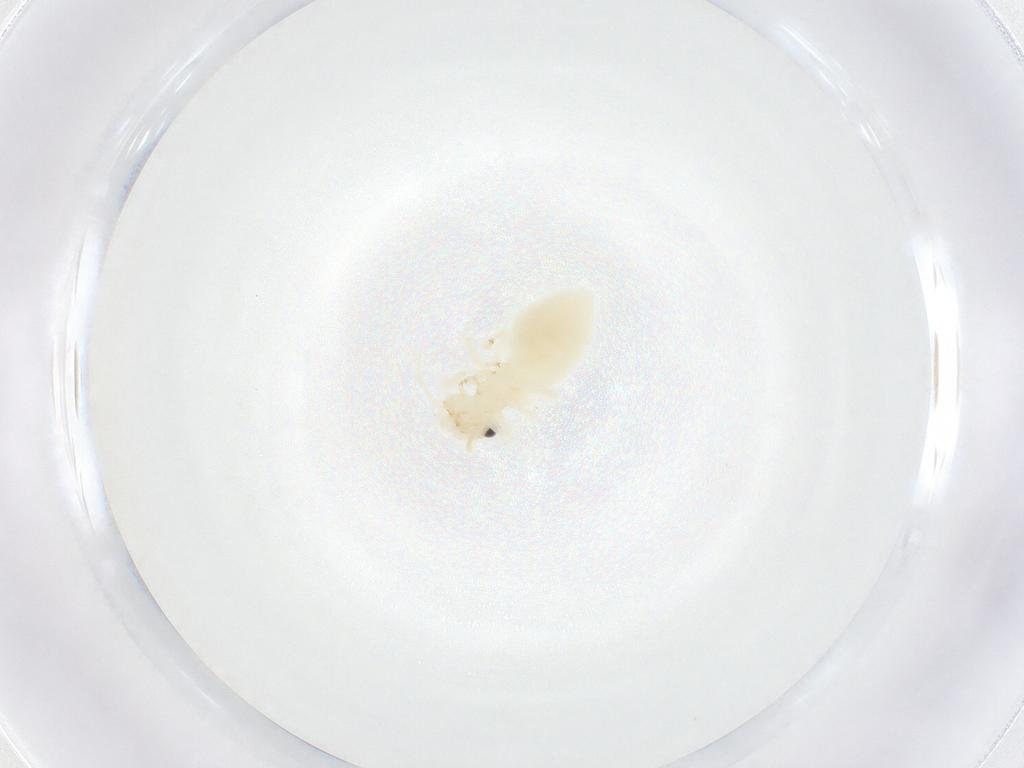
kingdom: Animalia
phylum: Arthropoda
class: Insecta
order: Psocodea
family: Stenopsocidae
